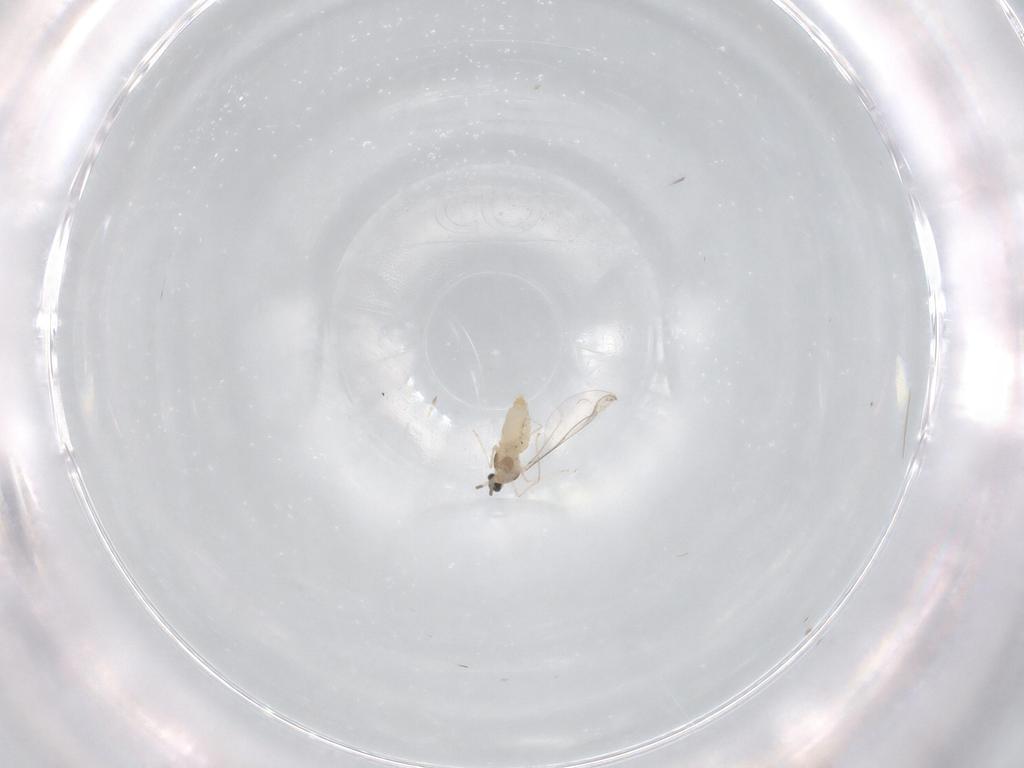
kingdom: Animalia
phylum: Arthropoda
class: Insecta
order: Diptera
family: Cecidomyiidae
